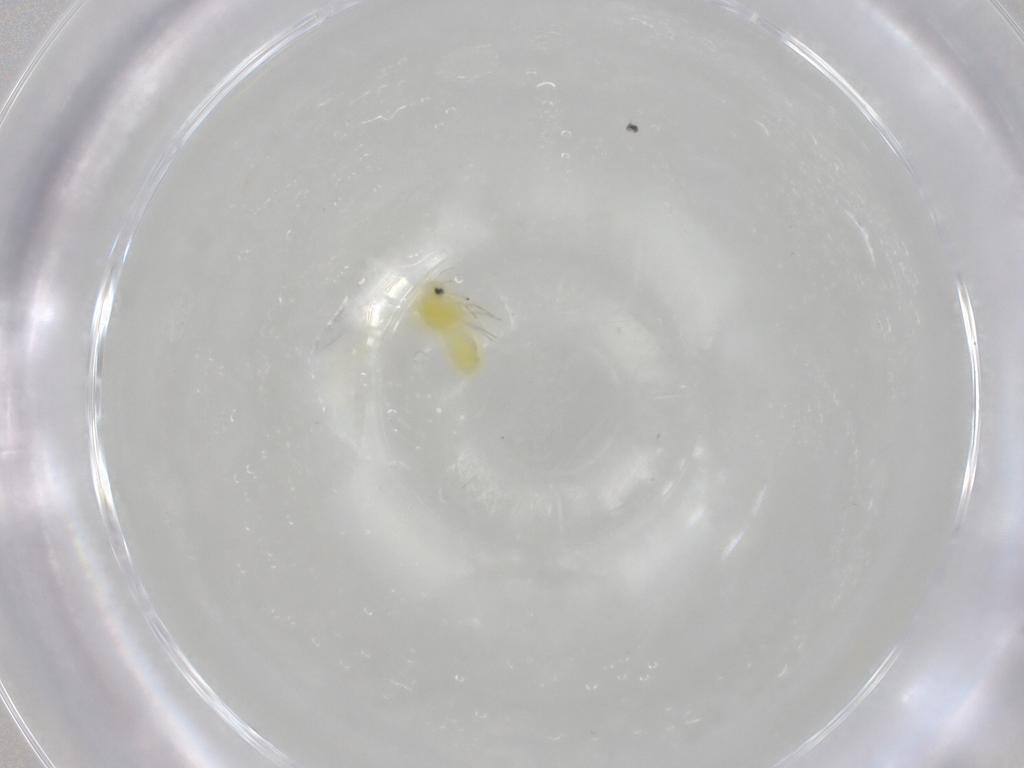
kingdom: Animalia
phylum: Arthropoda
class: Insecta
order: Hemiptera
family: Aleyrodidae
